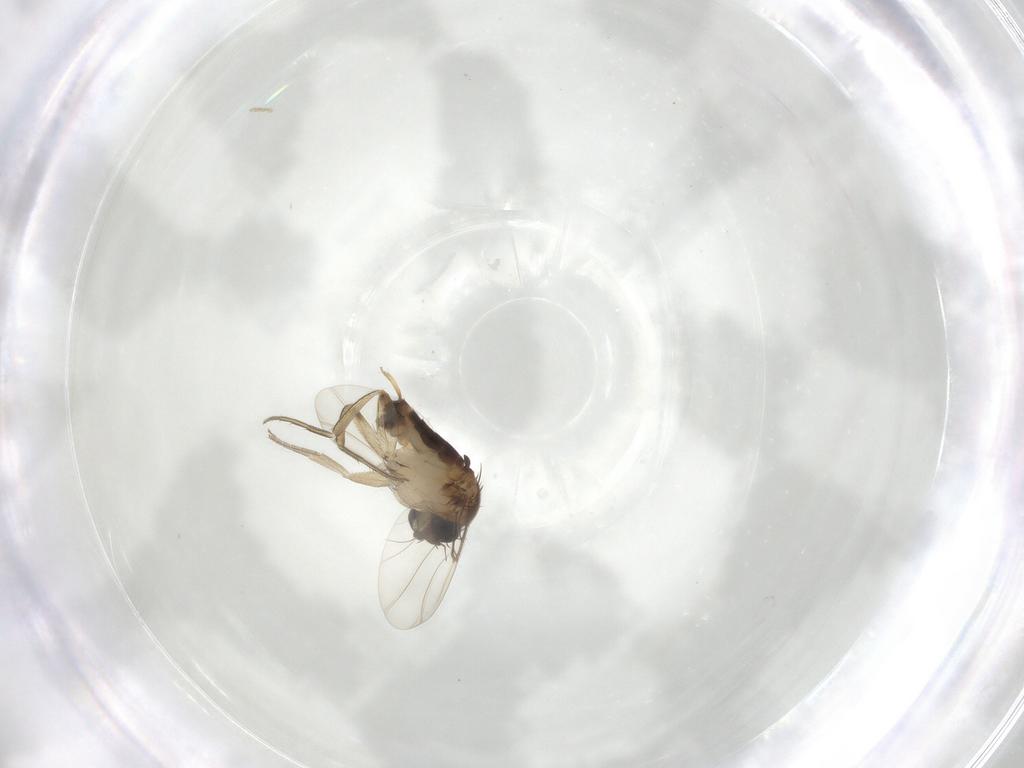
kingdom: Animalia
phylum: Arthropoda
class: Insecta
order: Diptera
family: Phoridae
